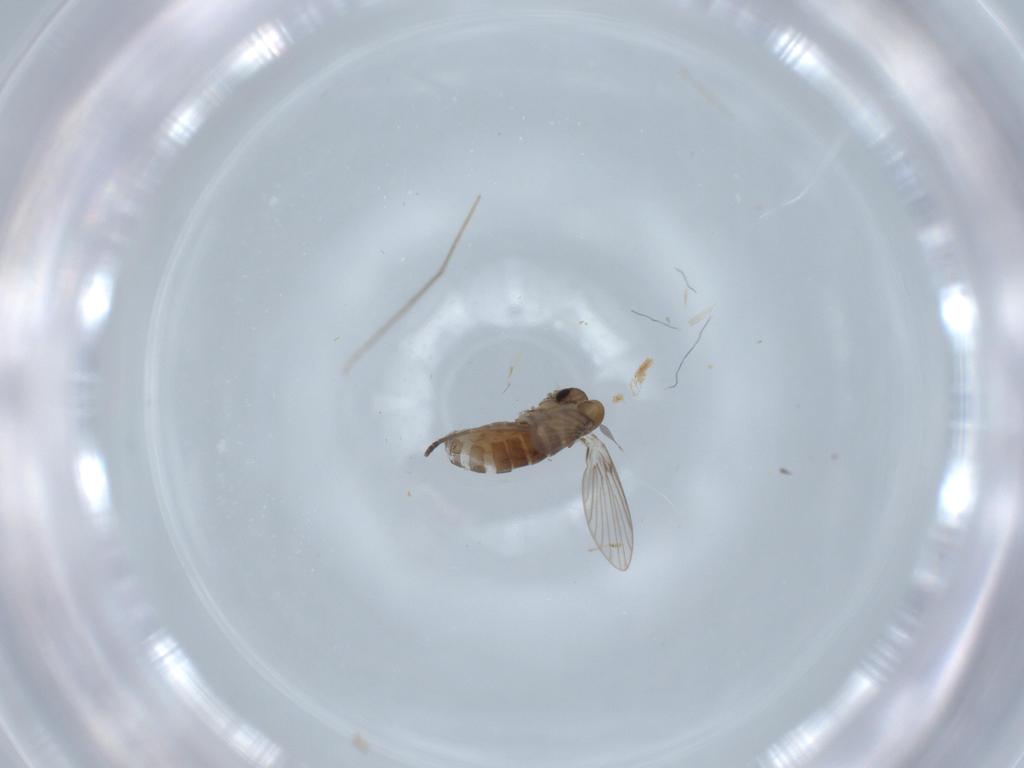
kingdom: Animalia
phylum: Arthropoda
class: Insecta
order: Diptera
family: Psychodidae
